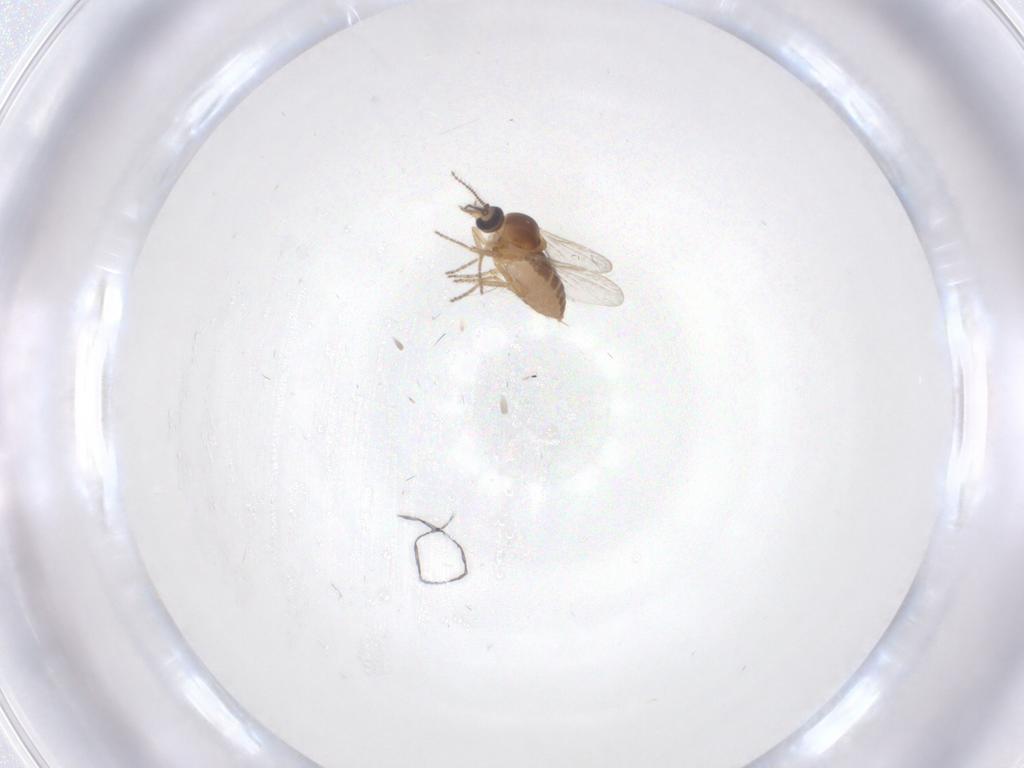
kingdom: Animalia
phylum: Arthropoda
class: Insecta
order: Diptera
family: Ceratopogonidae
